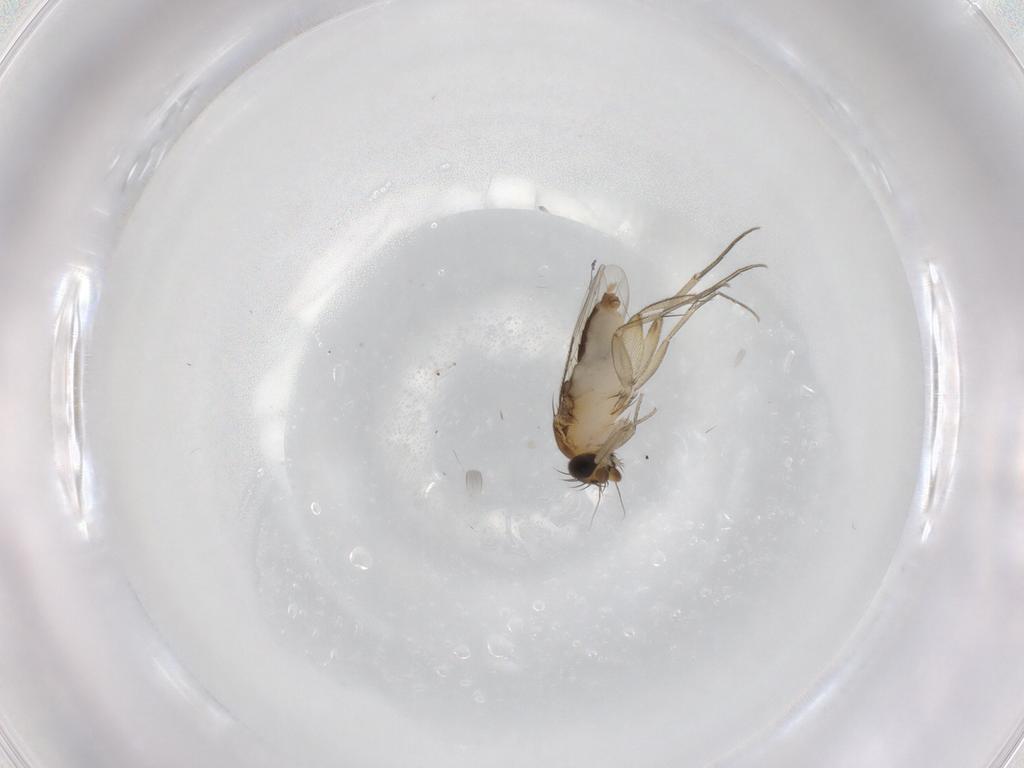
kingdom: Animalia
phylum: Arthropoda
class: Insecta
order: Diptera
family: Phoridae
